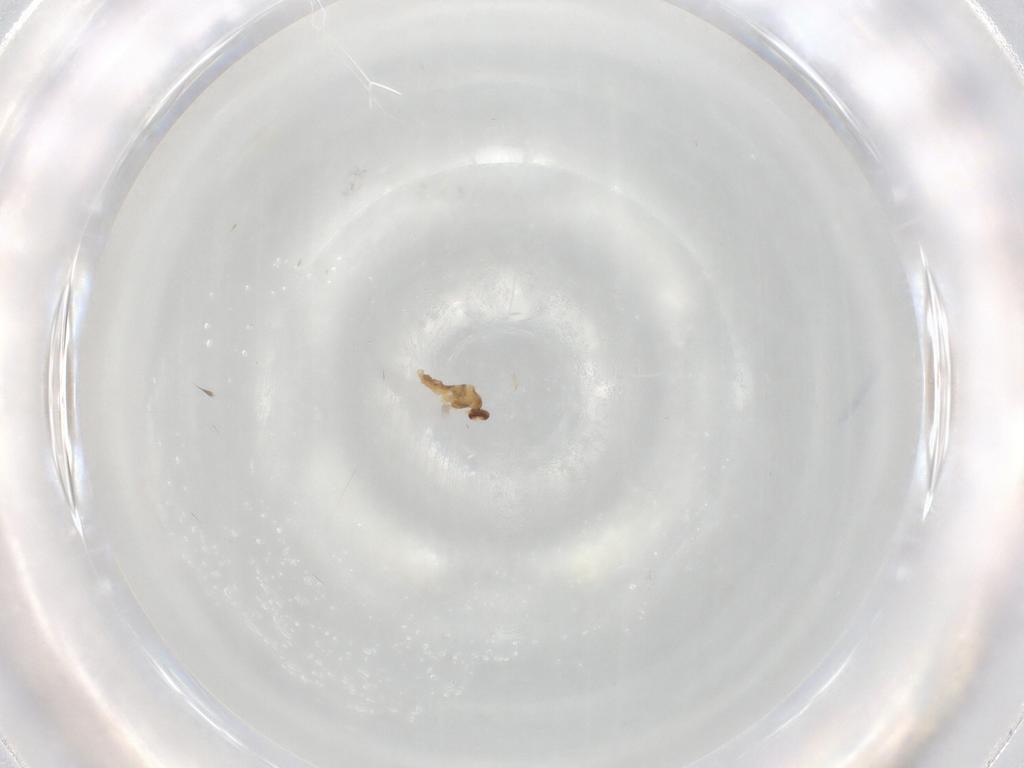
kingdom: Animalia
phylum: Arthropoda
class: Insecta
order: Diptera
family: Cecidomyiidae
